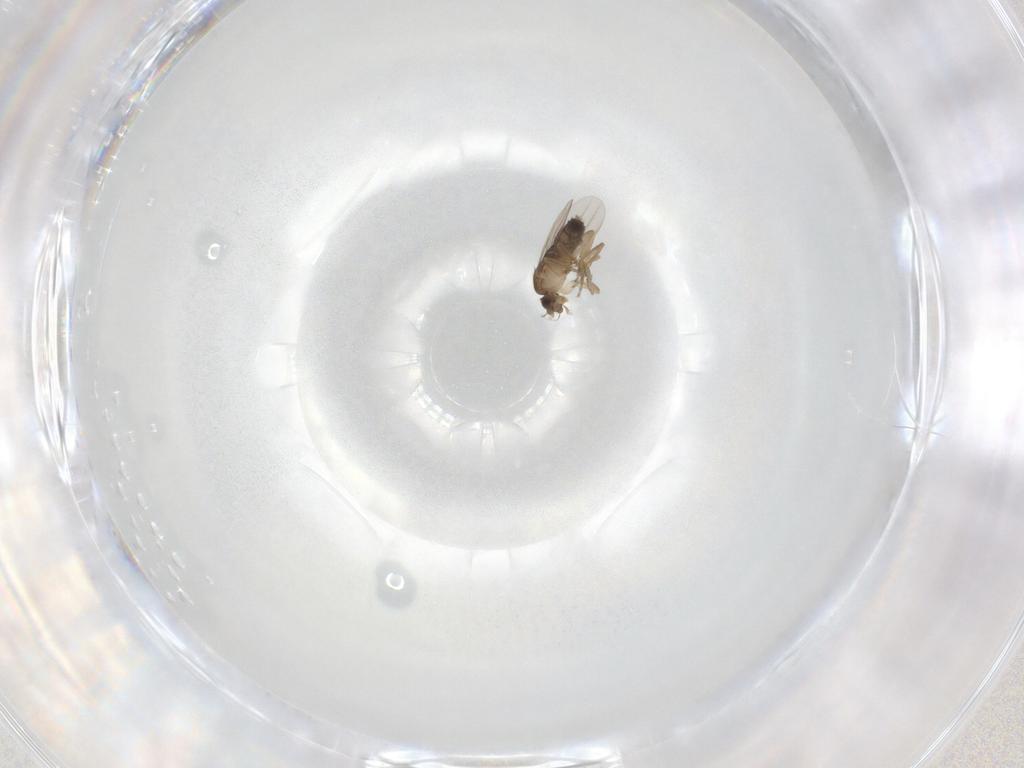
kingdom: Animalia
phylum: Arthropoda
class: Insecta
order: Diptera
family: Phoridae
